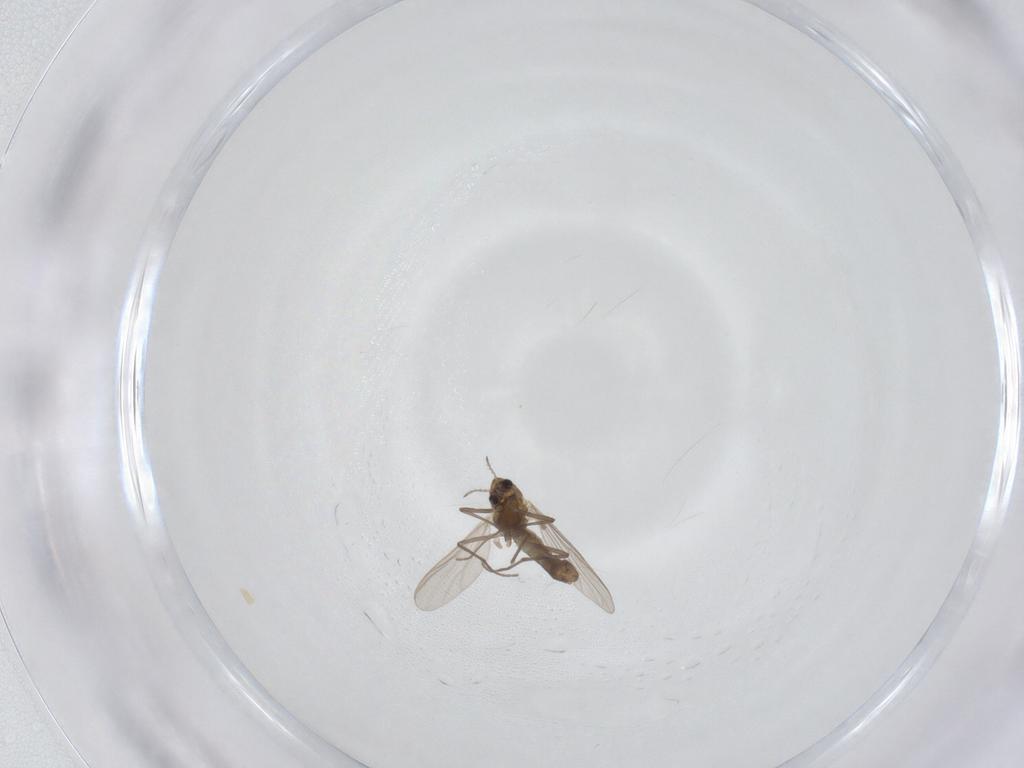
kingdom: Animalia
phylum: Arthropoda
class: Insecta
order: Diptera
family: Chironomidae
